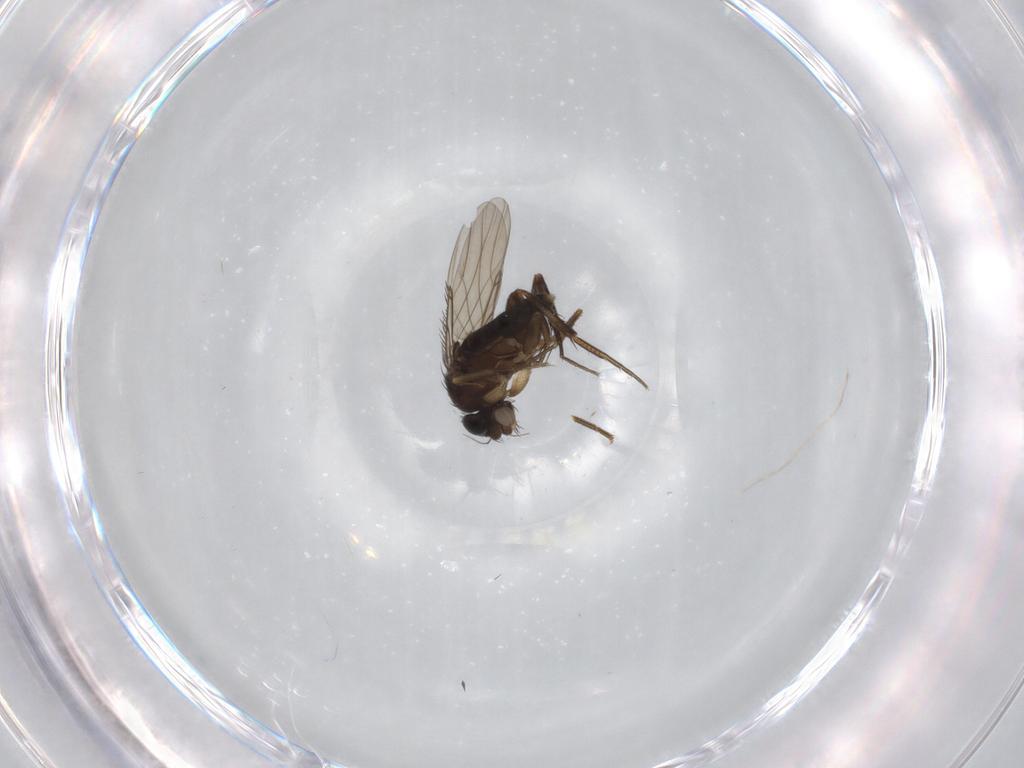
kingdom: Animalia
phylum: Arthropoda
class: Insecta
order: Diptera
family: Phoridae
